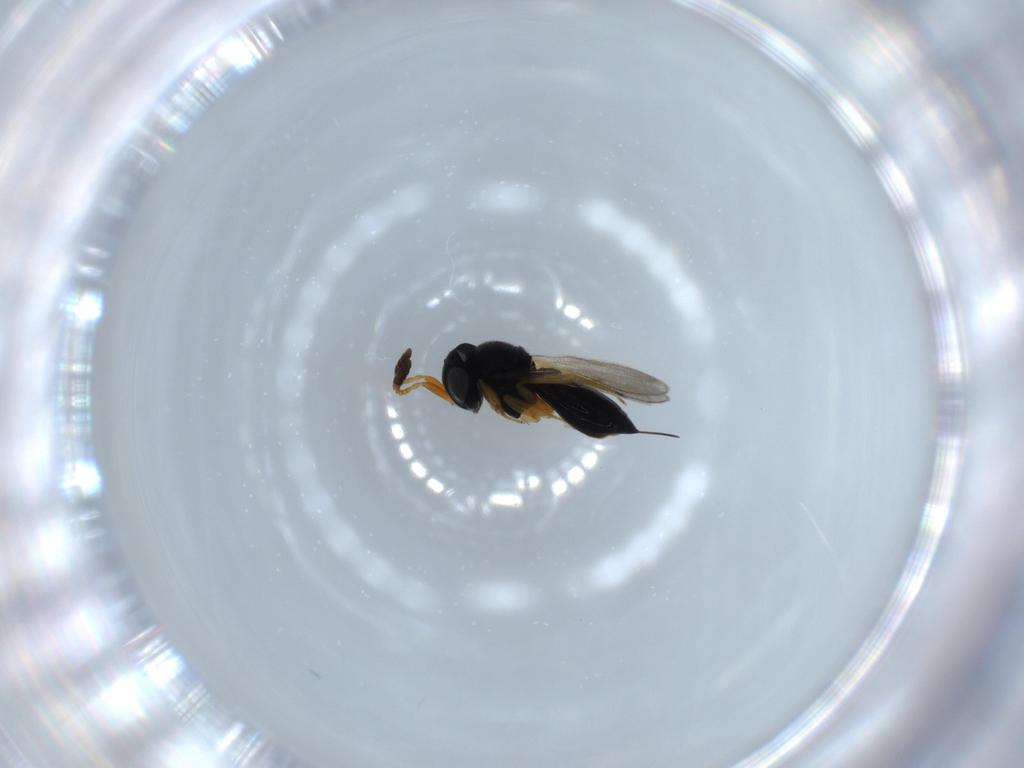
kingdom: Animalia
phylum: Arthropoda
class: Insecta
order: Hymenoptera
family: Scelionidae
